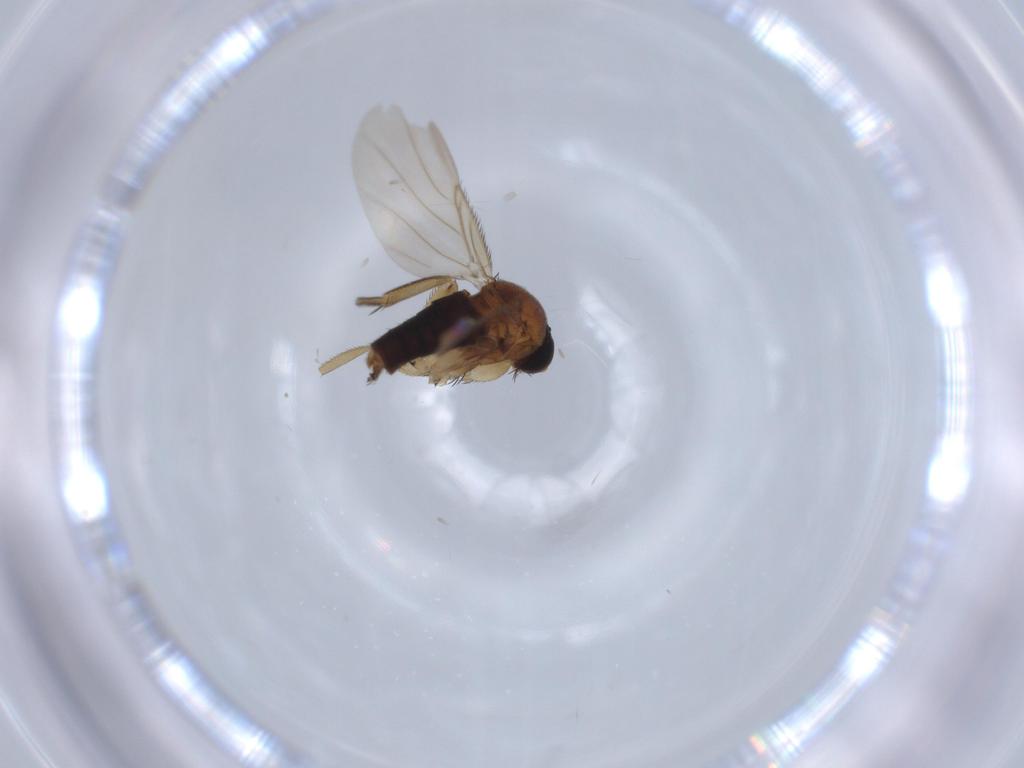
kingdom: Animalia
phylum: Arthropoda
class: Insecta
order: Diptera
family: Phoridae
